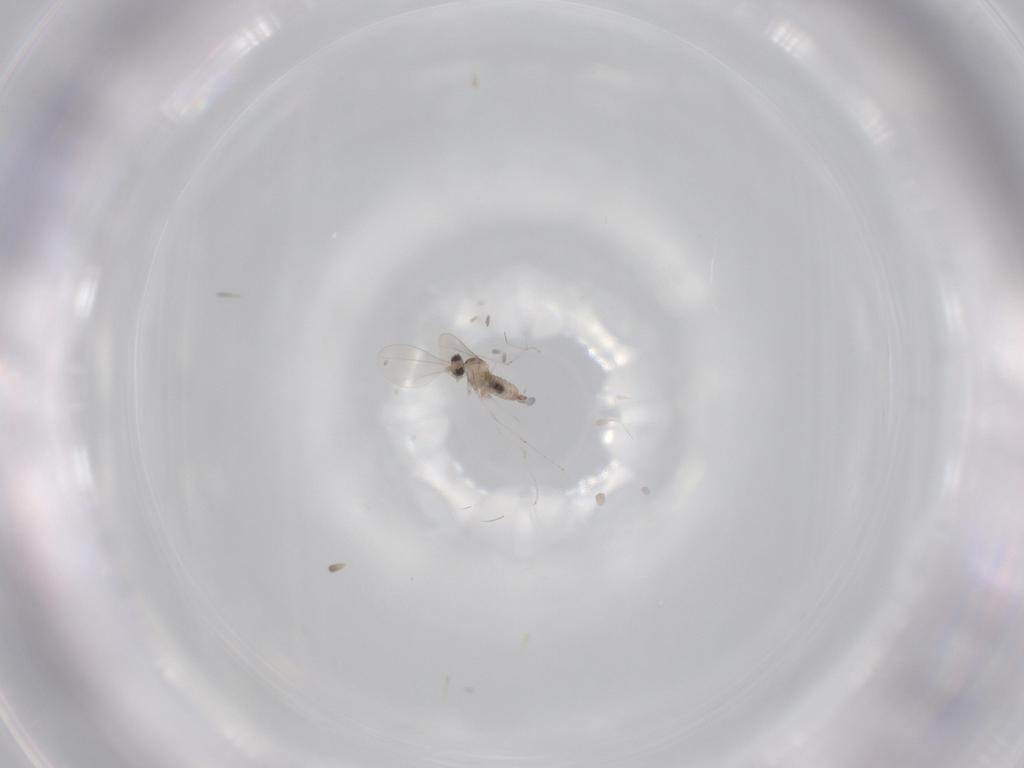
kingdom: Animalia
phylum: Arthropoda
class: Insecta
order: Diptera
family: Cecidomyiidae
